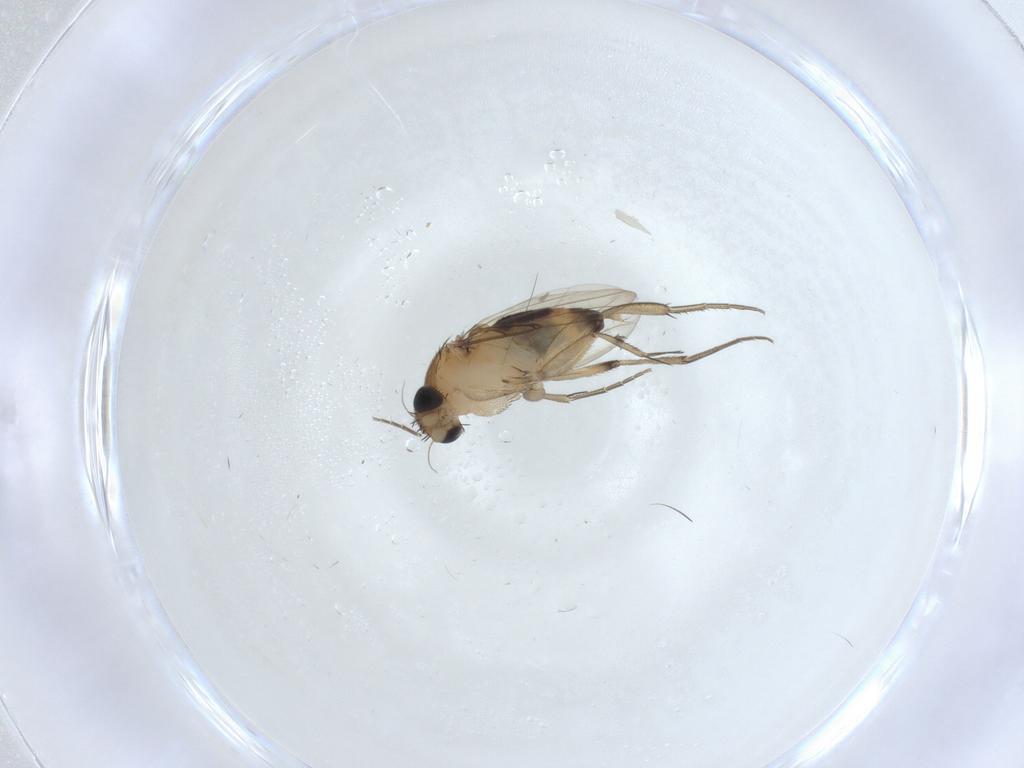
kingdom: Animalia
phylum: Arthropoda
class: Insecta
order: Diptera
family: Phoridae
